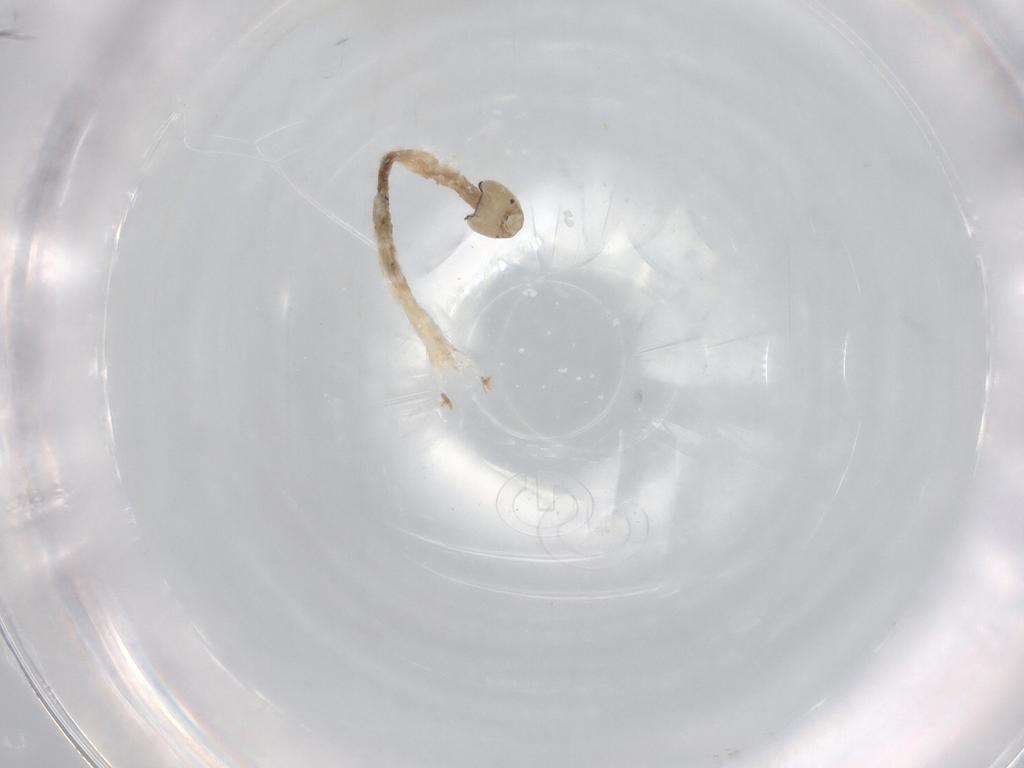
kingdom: Animalia
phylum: Arthropoda
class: Insecta
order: Diptera
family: Chironomidae
